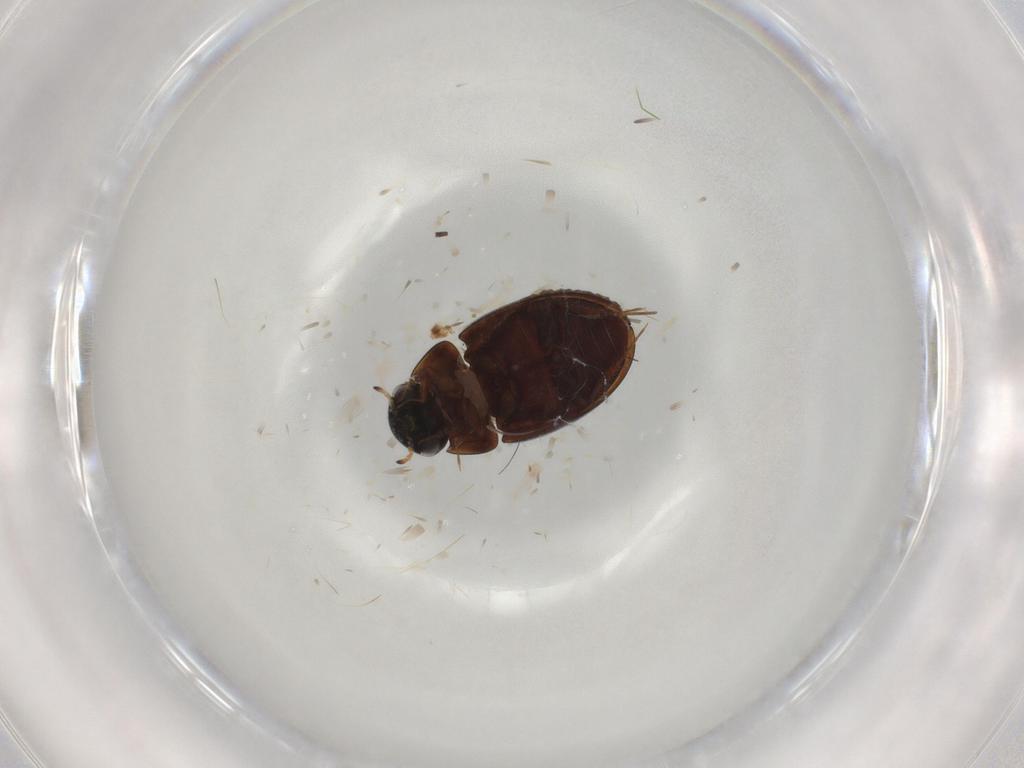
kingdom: Animalia
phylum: Arthropoda
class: Insecta
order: Coleoptera
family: Hydrophilidae
